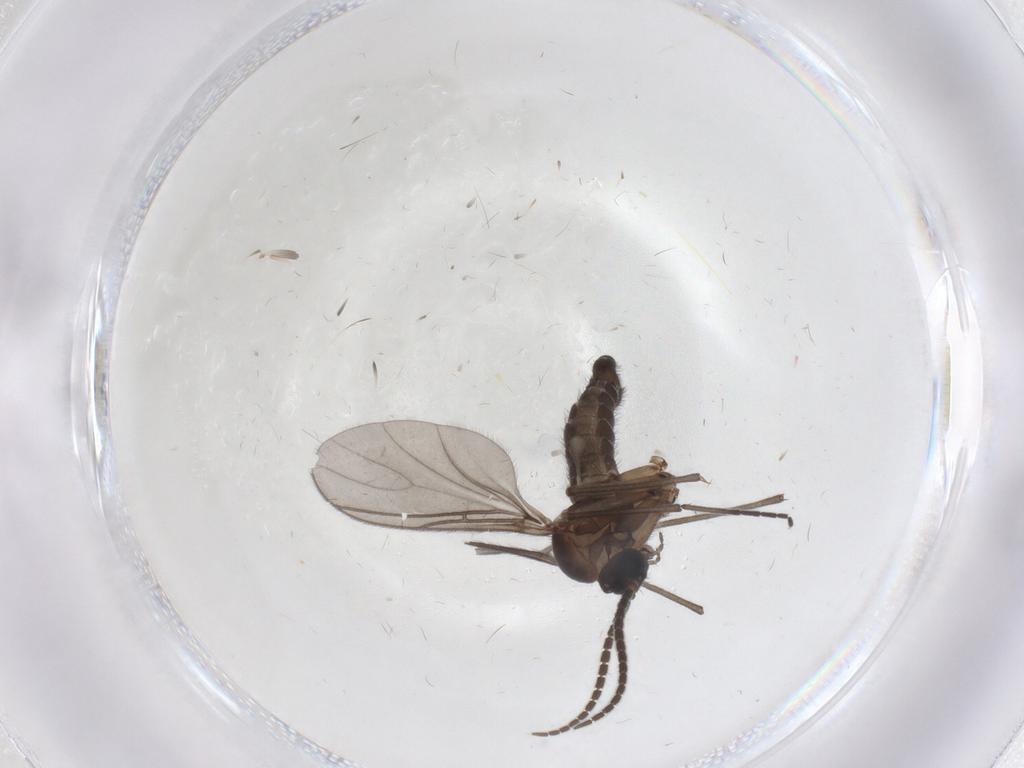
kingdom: Animalia
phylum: Arthropoda
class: Insecta
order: Diptera
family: Sciaridae
